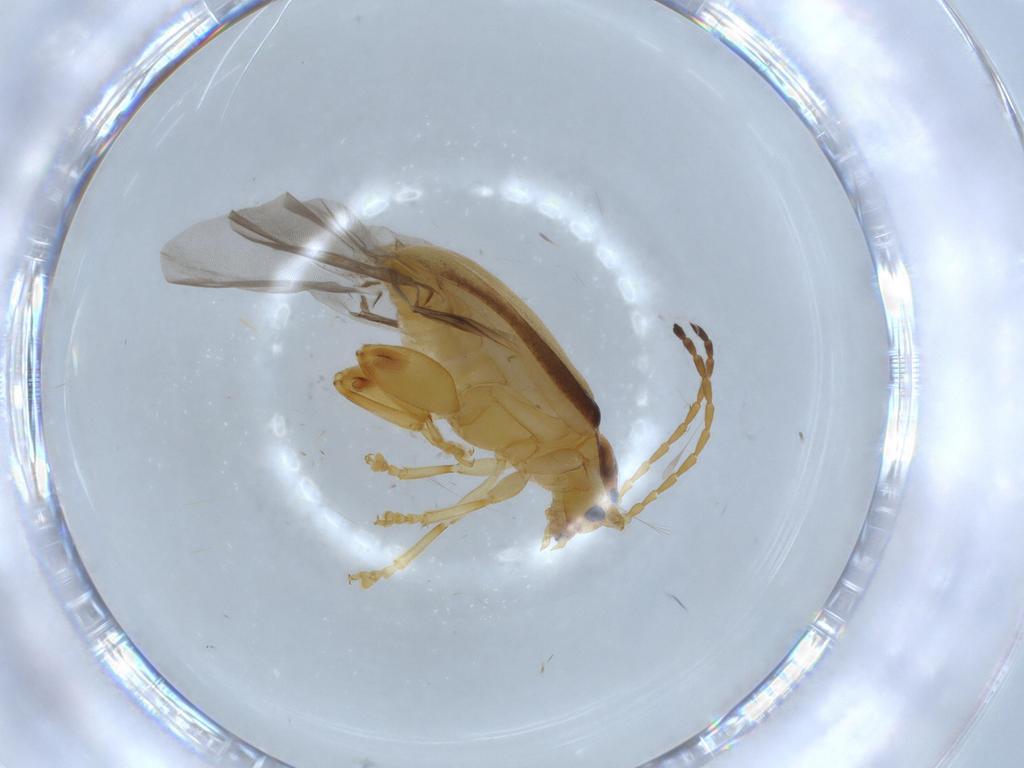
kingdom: Animalia
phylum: Arthropoda
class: Insecta
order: Coleoptera
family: Chrysomelidae
